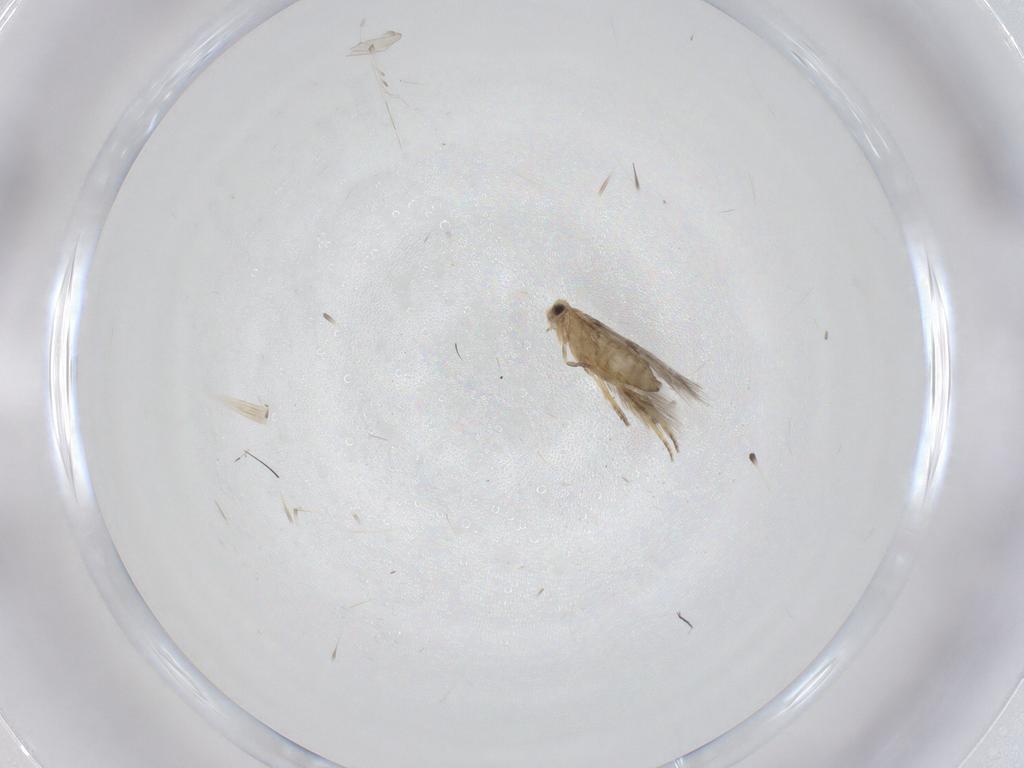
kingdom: Animalia
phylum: Arthropoda
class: Insecta
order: Lepidoptera
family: Nepticulidae
